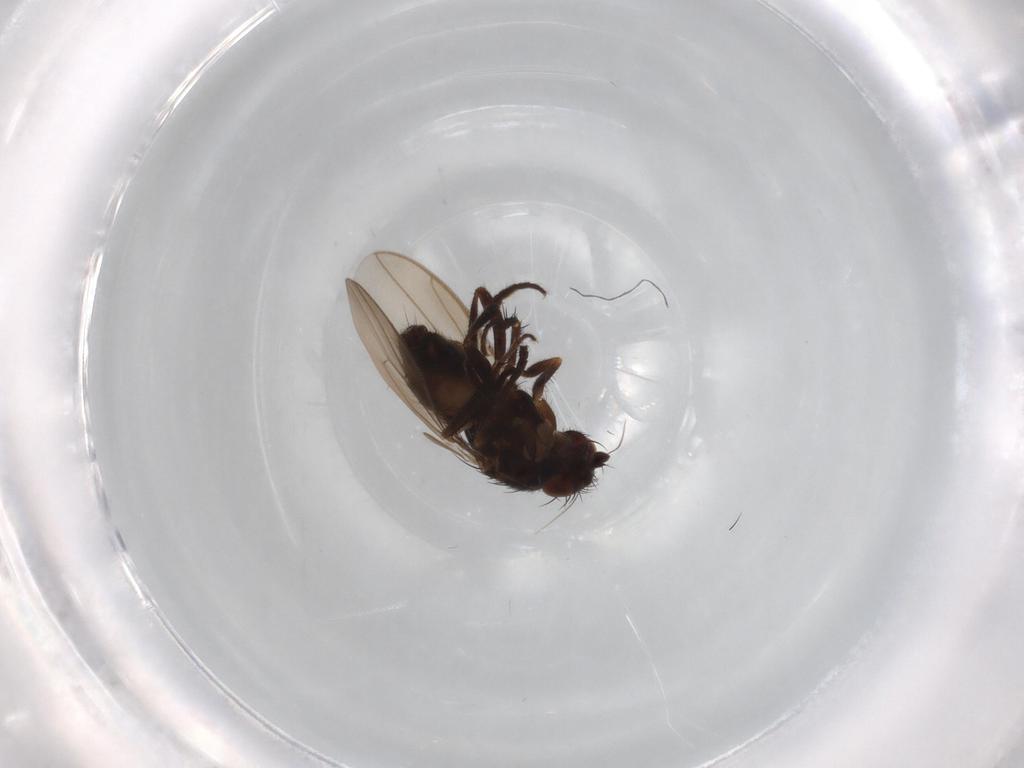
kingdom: Animalia
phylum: Arthropoda
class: Insecta
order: Diptera
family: Sphaeroceridae
